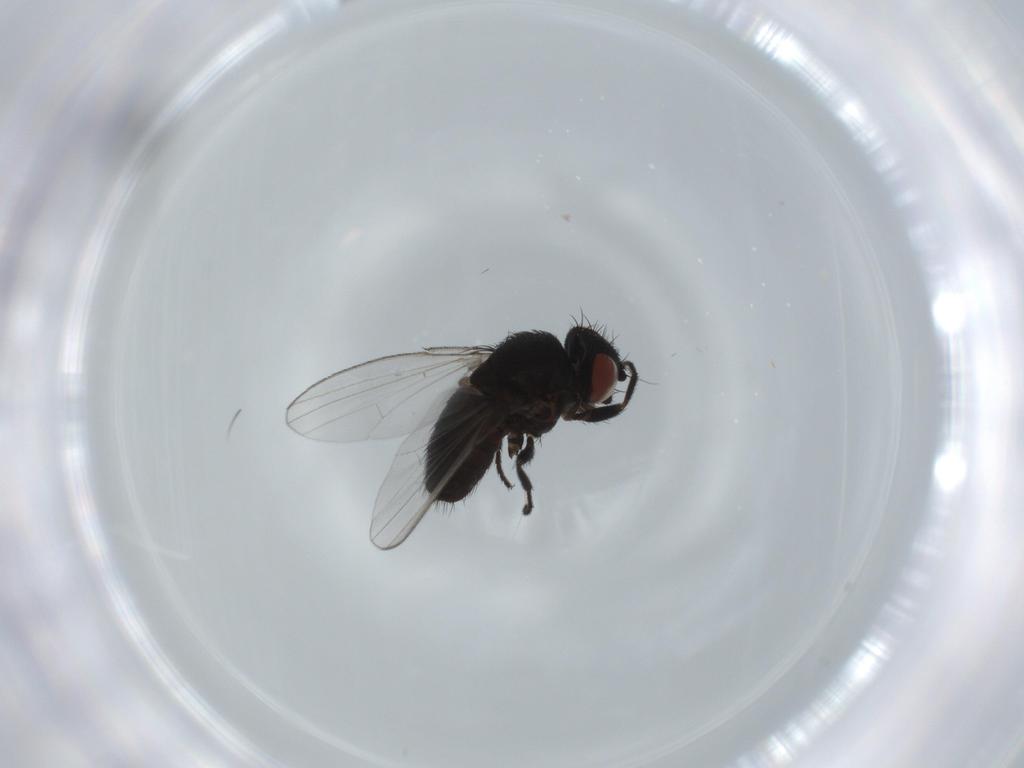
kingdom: Animalia
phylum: Arthropoda
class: Insecta
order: Diptera
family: Milichiidae
